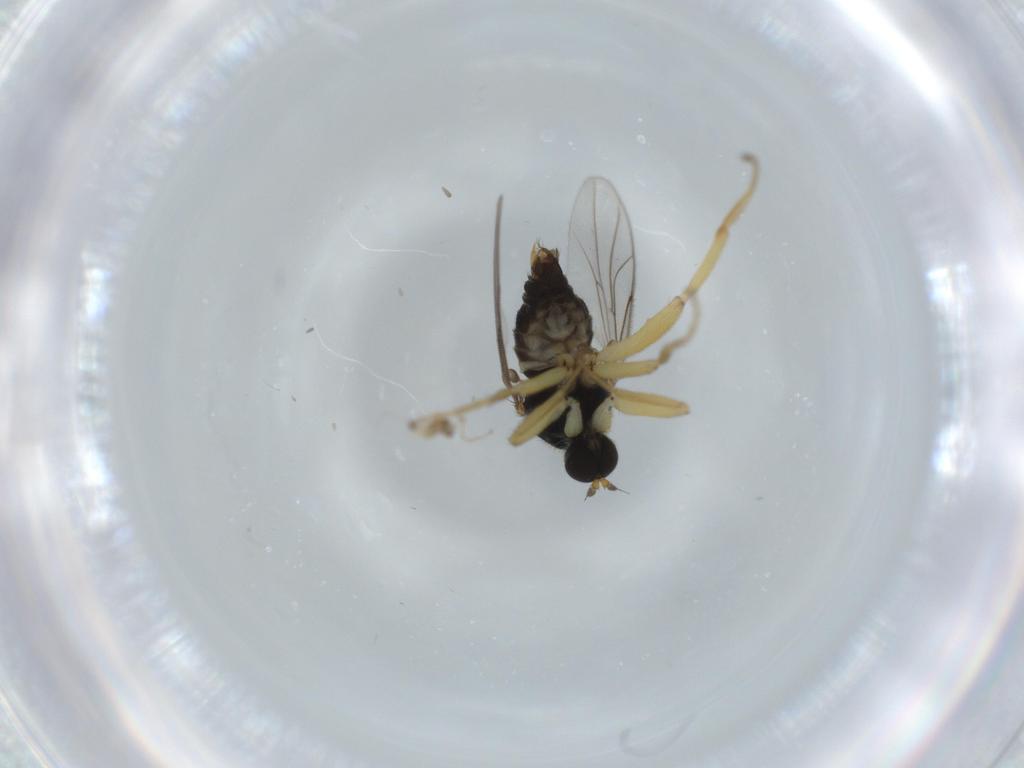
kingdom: Animalia
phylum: Arthropoda
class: Insecta
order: Diptera
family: Hybotidae
